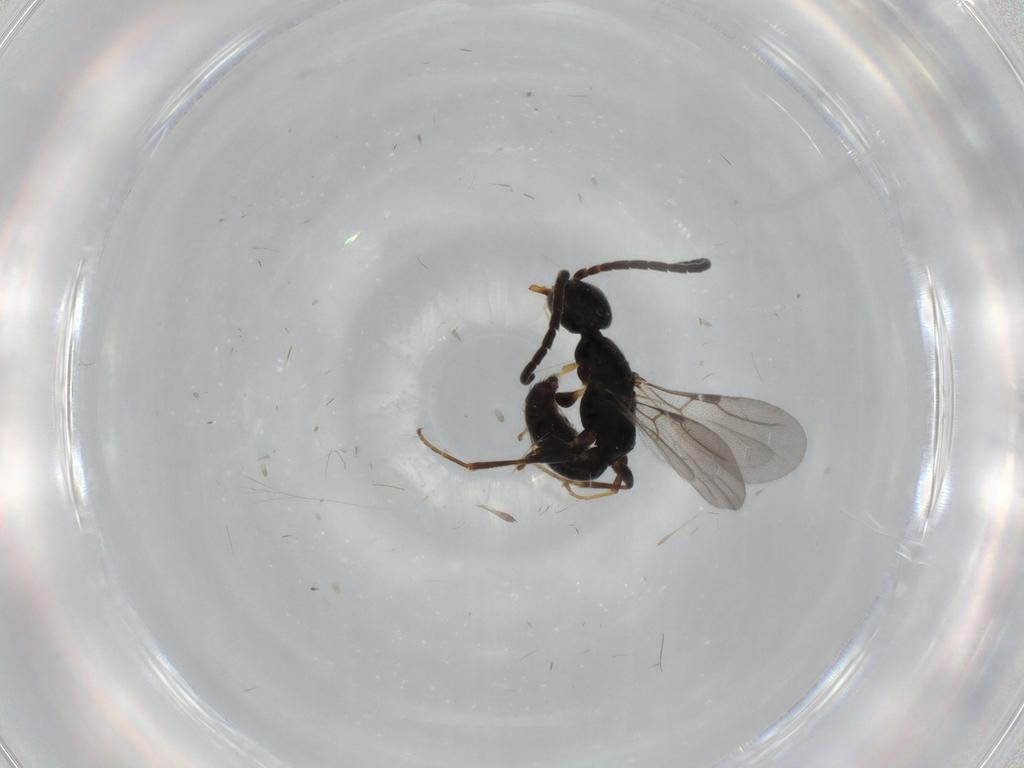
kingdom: Animalia
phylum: Arthropoda
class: Insecta
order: Hymenoptera
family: Bethylidae
